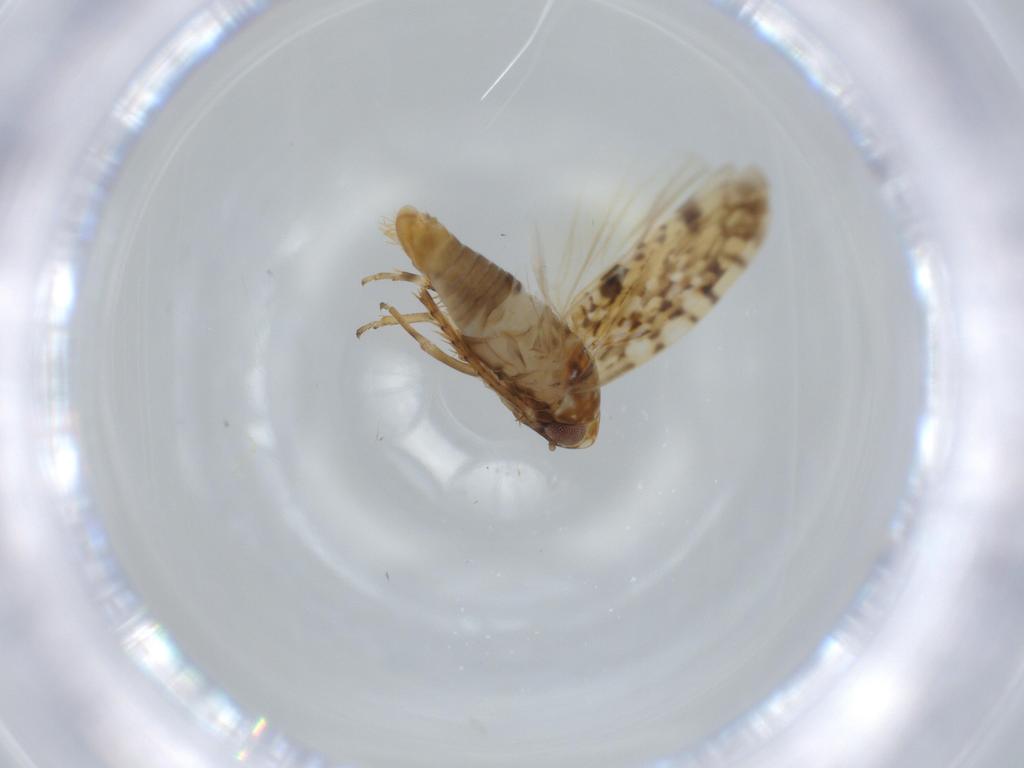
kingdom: Animalia
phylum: Arthropoda
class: Insecta
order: Hemiptera
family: Cicadellidae
